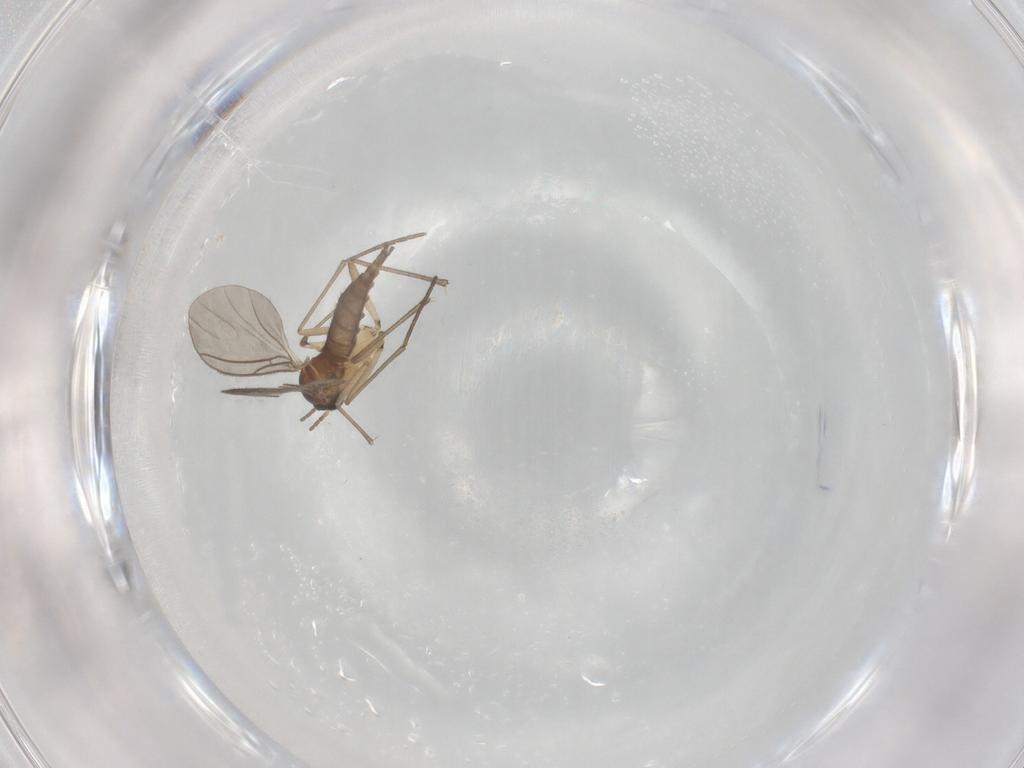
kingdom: Animalia
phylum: Arthropoda
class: Insecta
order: Diptera
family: Sciaridae
